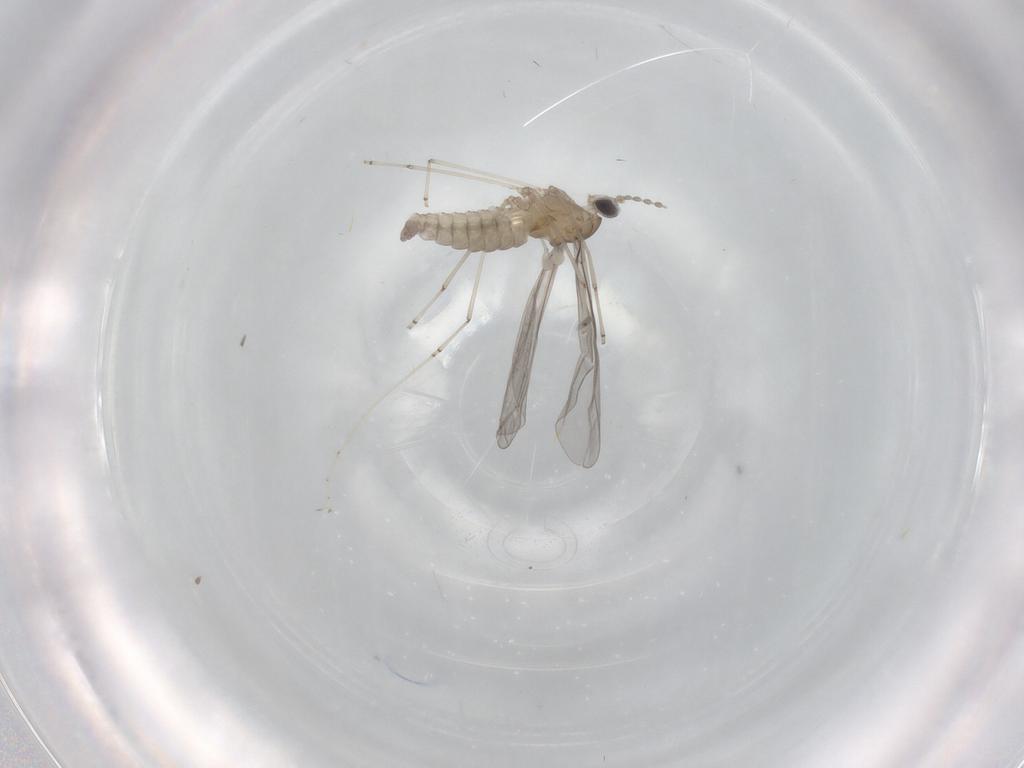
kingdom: Animalia
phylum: Arthropoda
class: Insecta
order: Diptera
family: Cecidomyiidae
